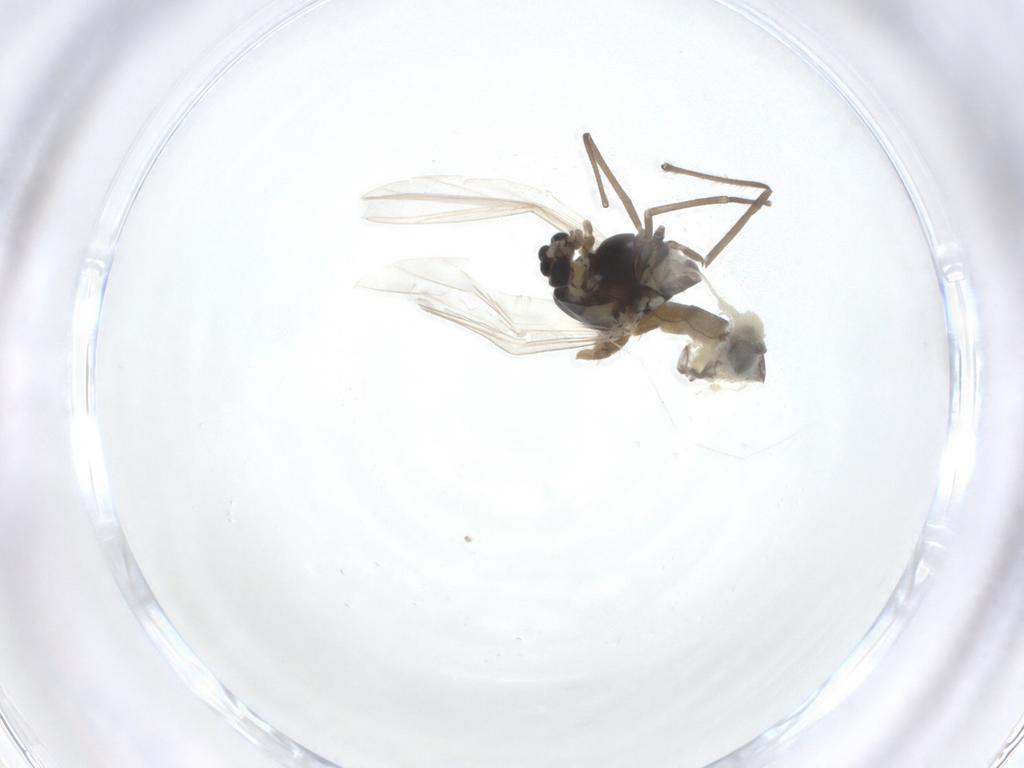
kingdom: Animalia
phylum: Arthropoda
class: Insecta
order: Diptera
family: Chironomidae
